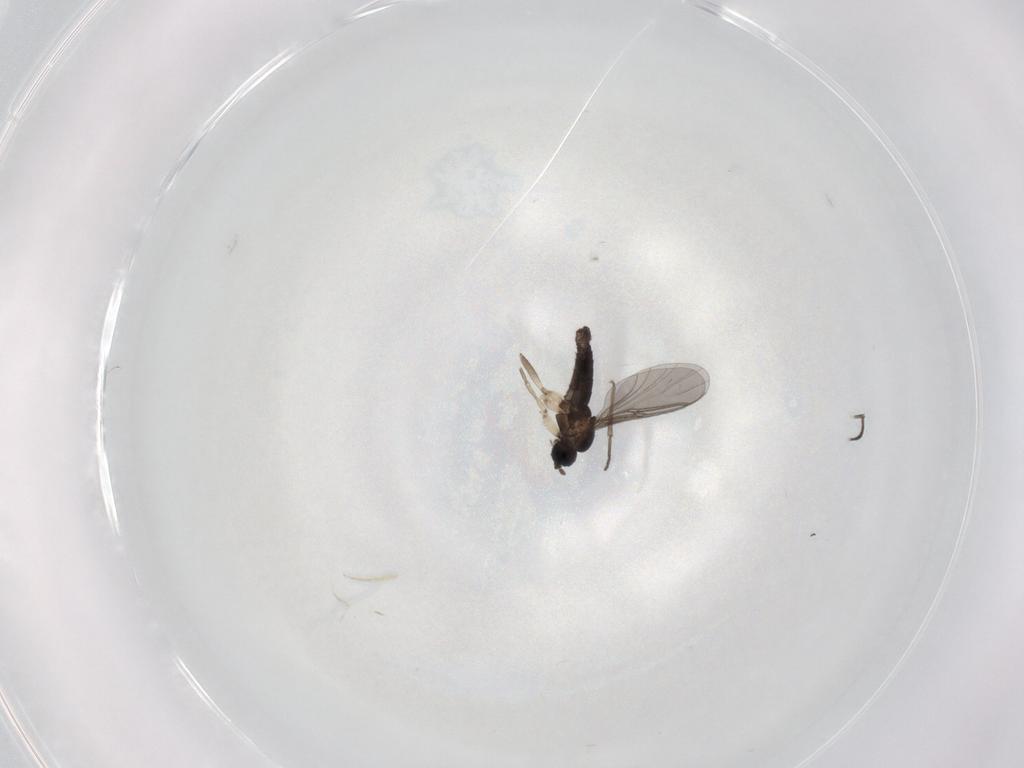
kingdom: Animalia
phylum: Arthropoda
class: Insecta
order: Diptera
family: Sciaridae
